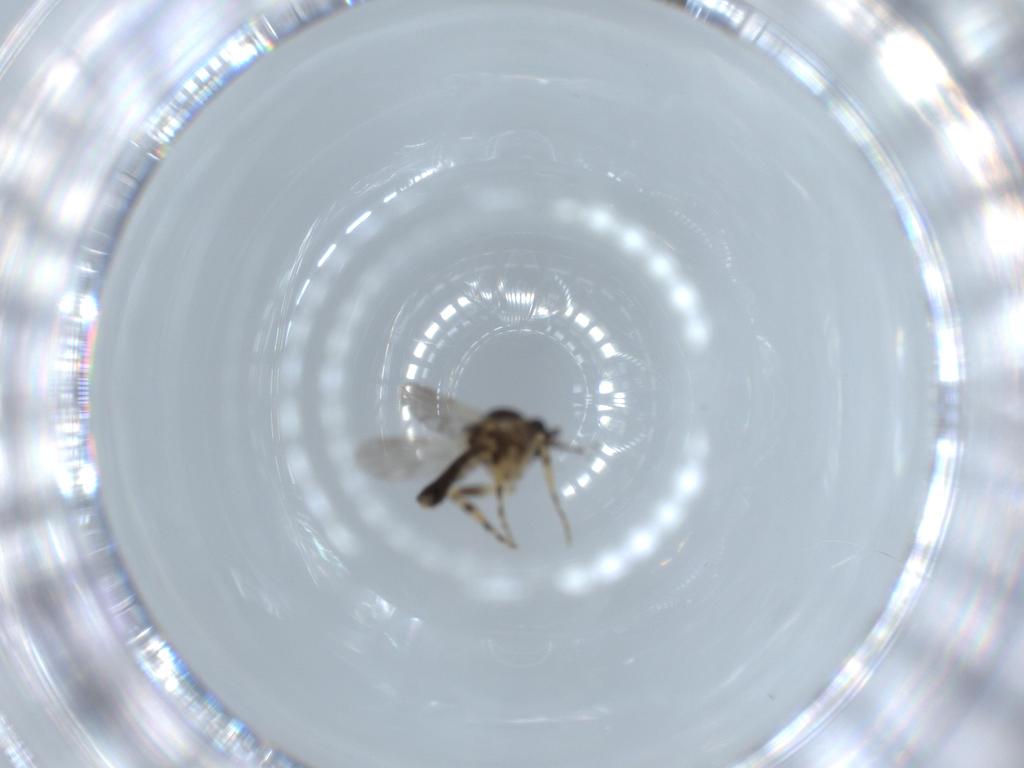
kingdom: Animalia
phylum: Arthropoda
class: Insecta
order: Diptera
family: Ceratopogonidae
